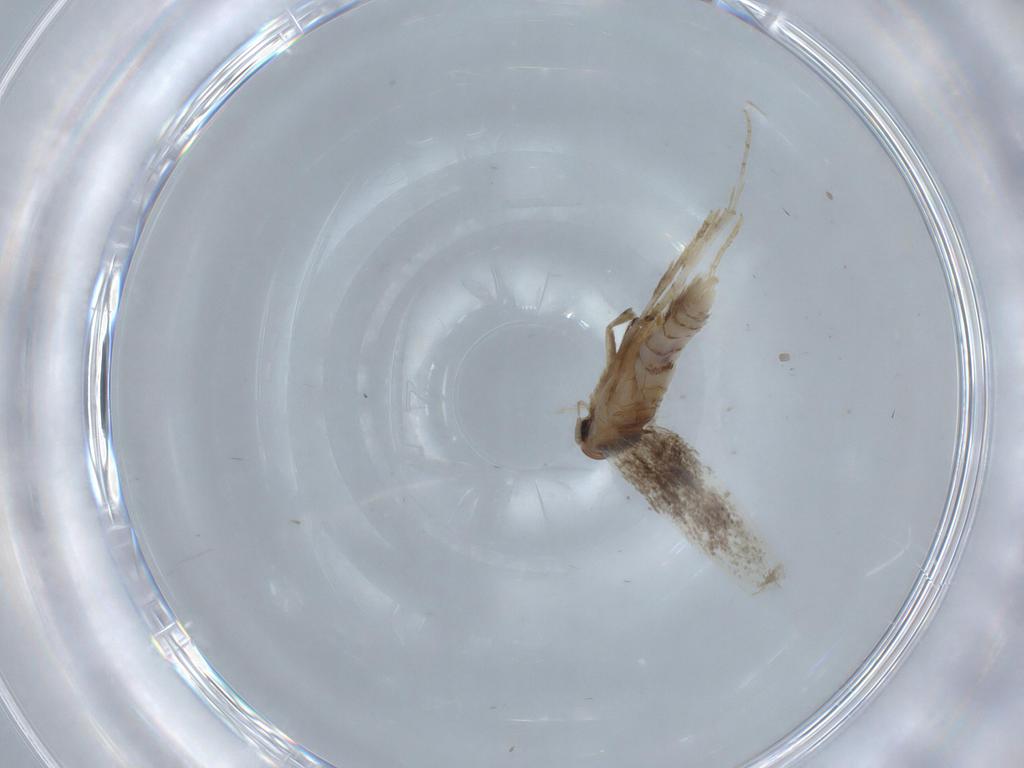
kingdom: Animalia
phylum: Arthropoda
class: Insecta
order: Lepidoptera
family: Elachistidae
